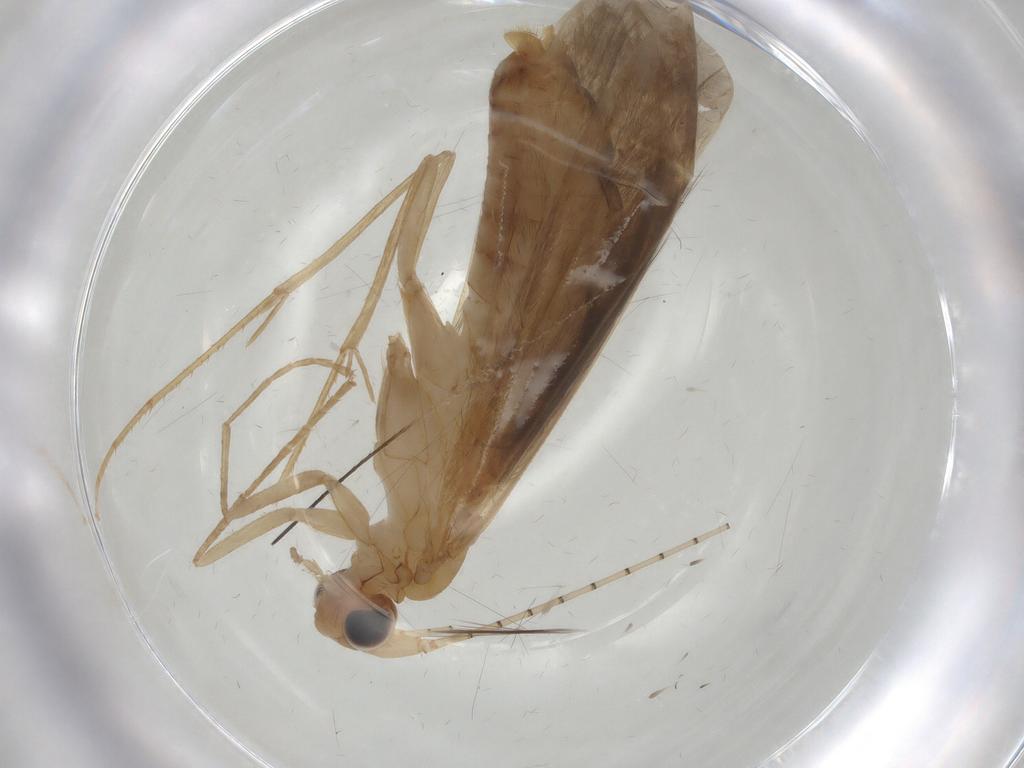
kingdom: Animalia
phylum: Arthropoda
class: Insecta
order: Trichoptera
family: Leptoceridae
